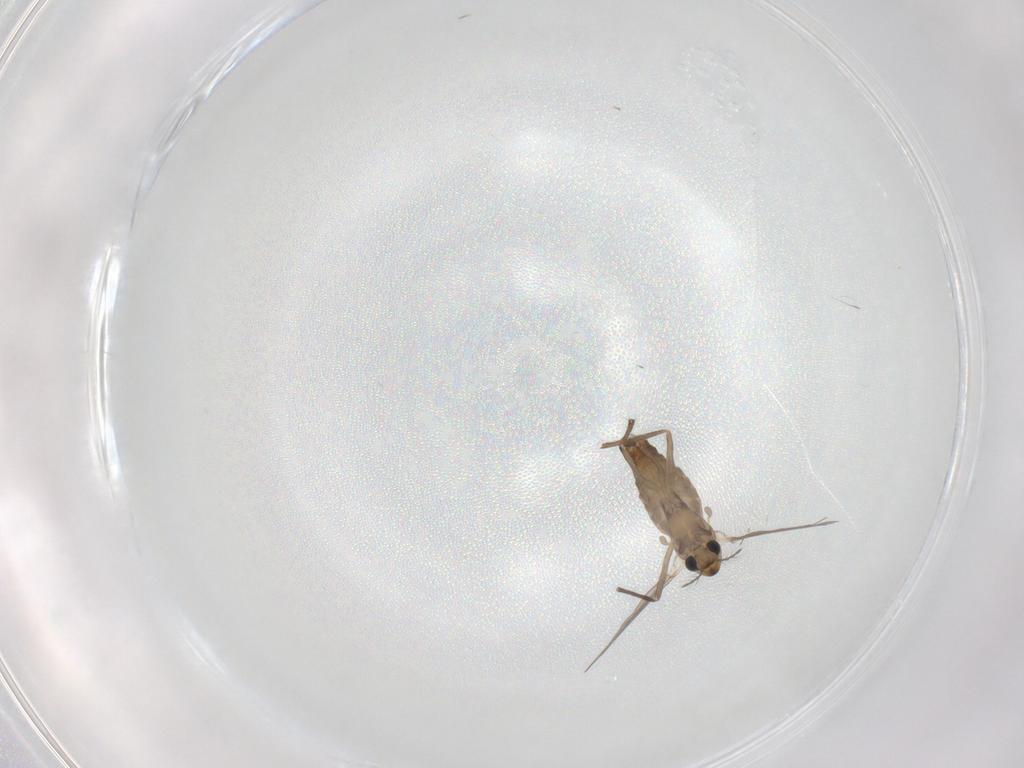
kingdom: Animalia
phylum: Arthropoda
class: Insecta
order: Diptera
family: Chironomidae
